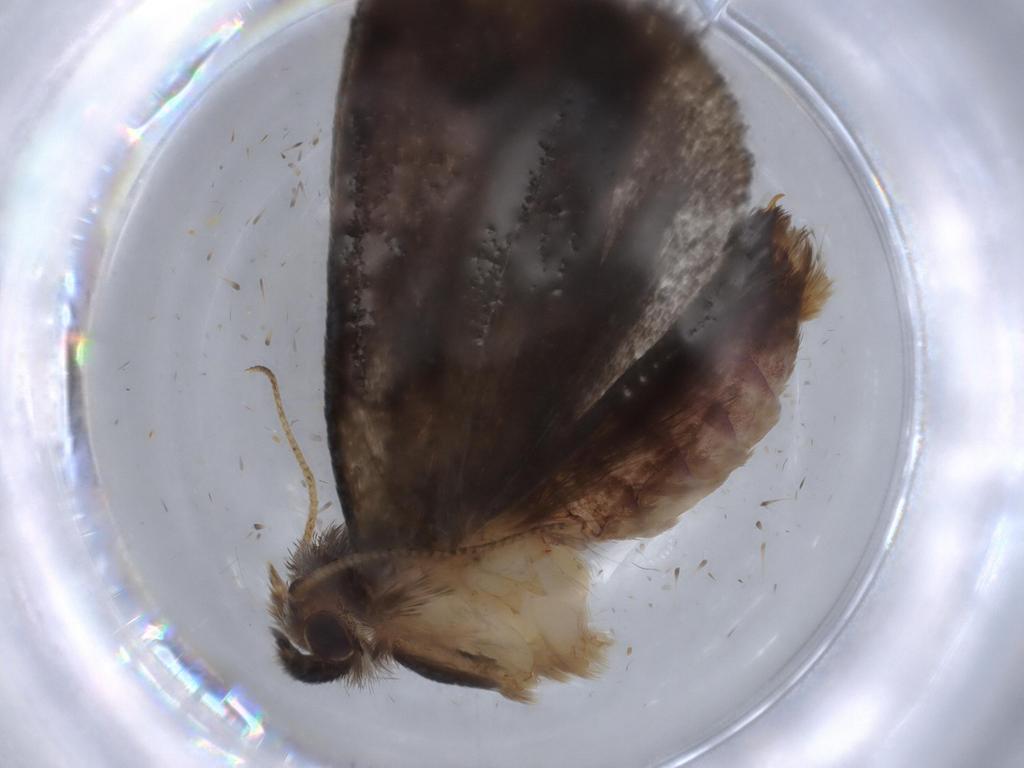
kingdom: Animalia
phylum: Arthropoda
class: Insecta
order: Lepidoptera
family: Tineidae
